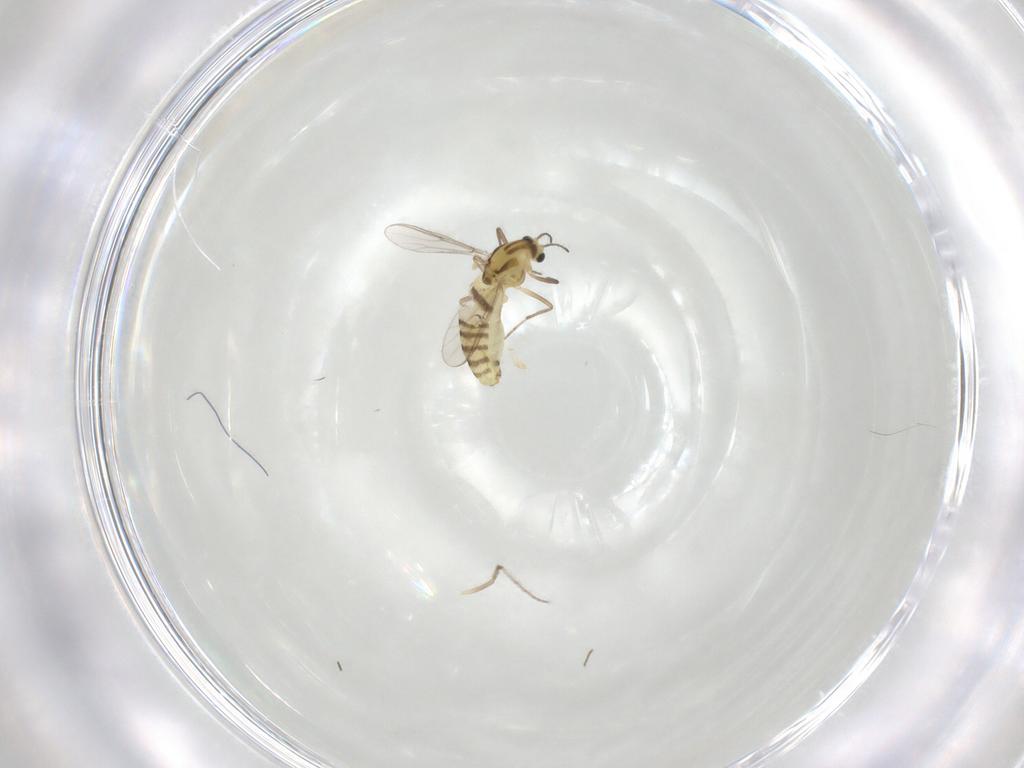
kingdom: Animalia
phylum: Arthropoda
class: Insecta
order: Diptera
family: Chironomidae
